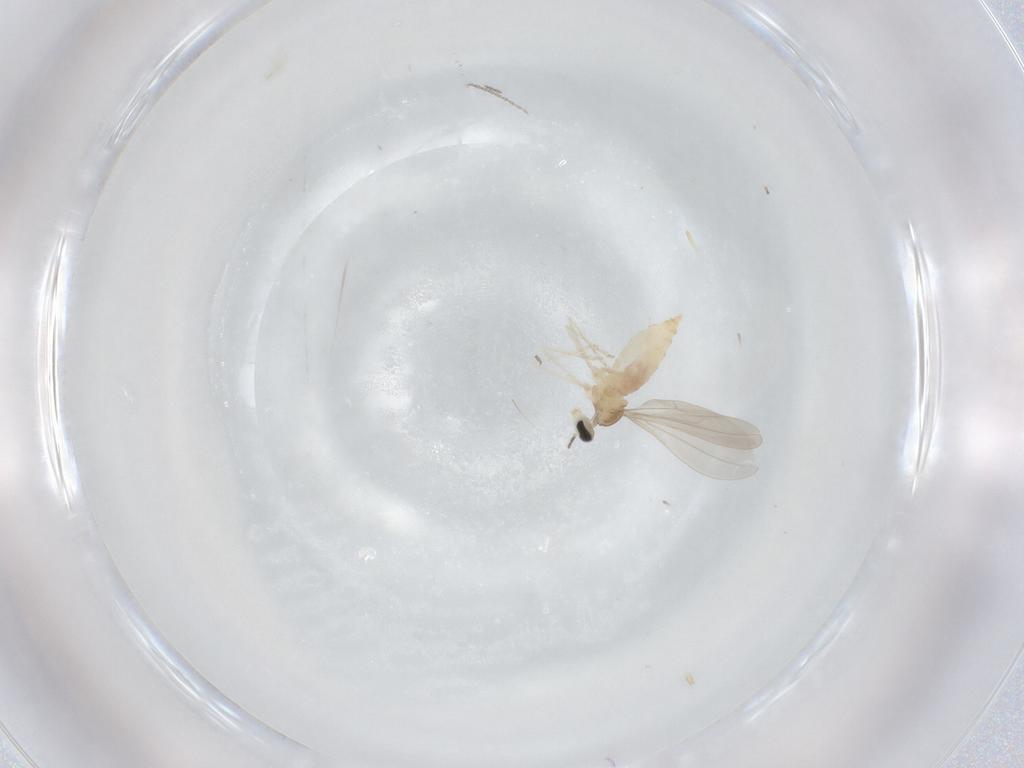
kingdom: Animalia
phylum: Arthropoda
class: Insecta
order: Diptera
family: Cecidomyiidae
